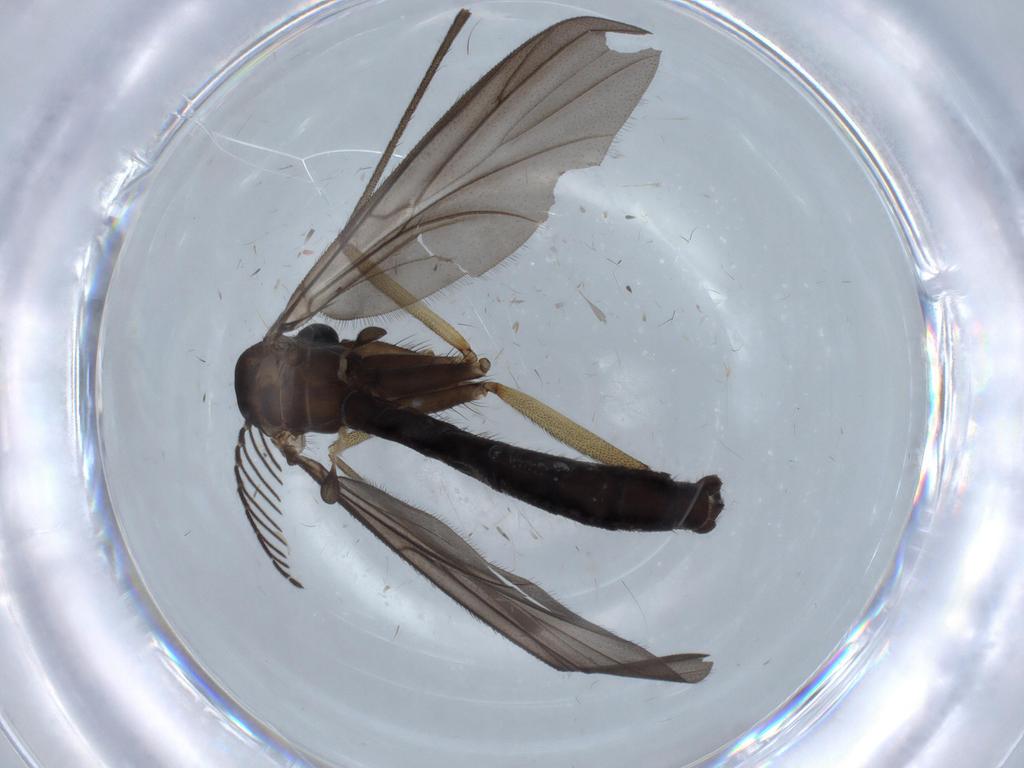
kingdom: Animalia
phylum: Arthropoda
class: Insecta
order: Diptera
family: Ditomyiidae
